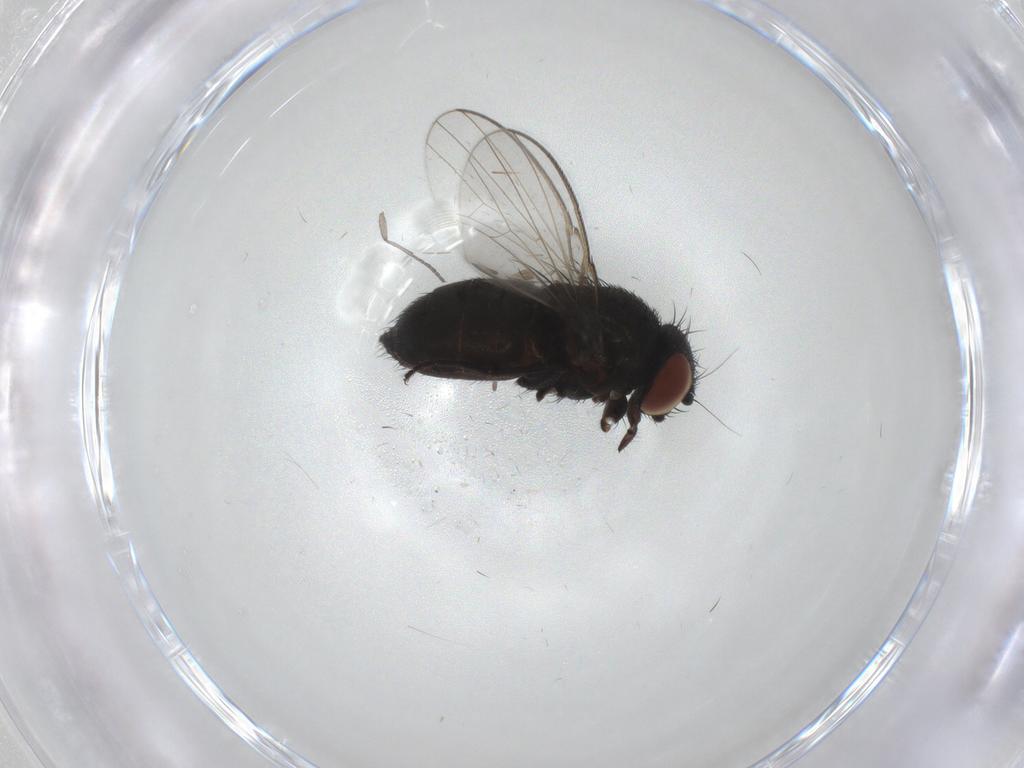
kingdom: Animalia
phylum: Arthropoda
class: Insecta
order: Diptera
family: Milichiidae
